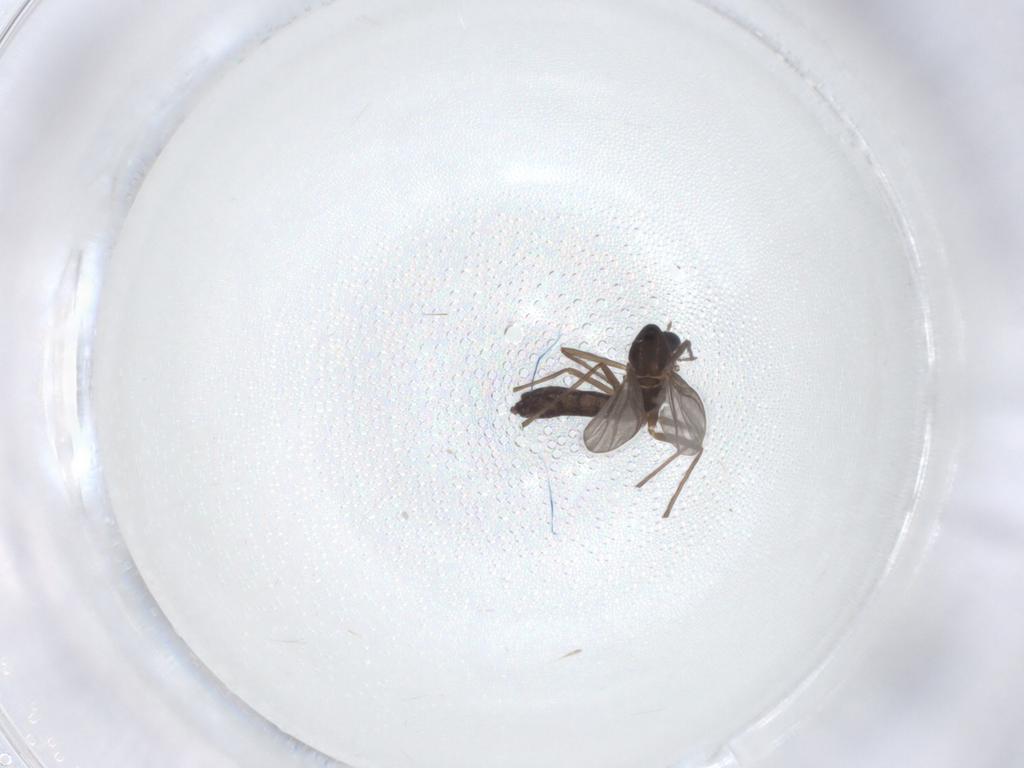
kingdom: Animalia
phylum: Arthropoda
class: Insecta
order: Diptera
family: Chironomidae
